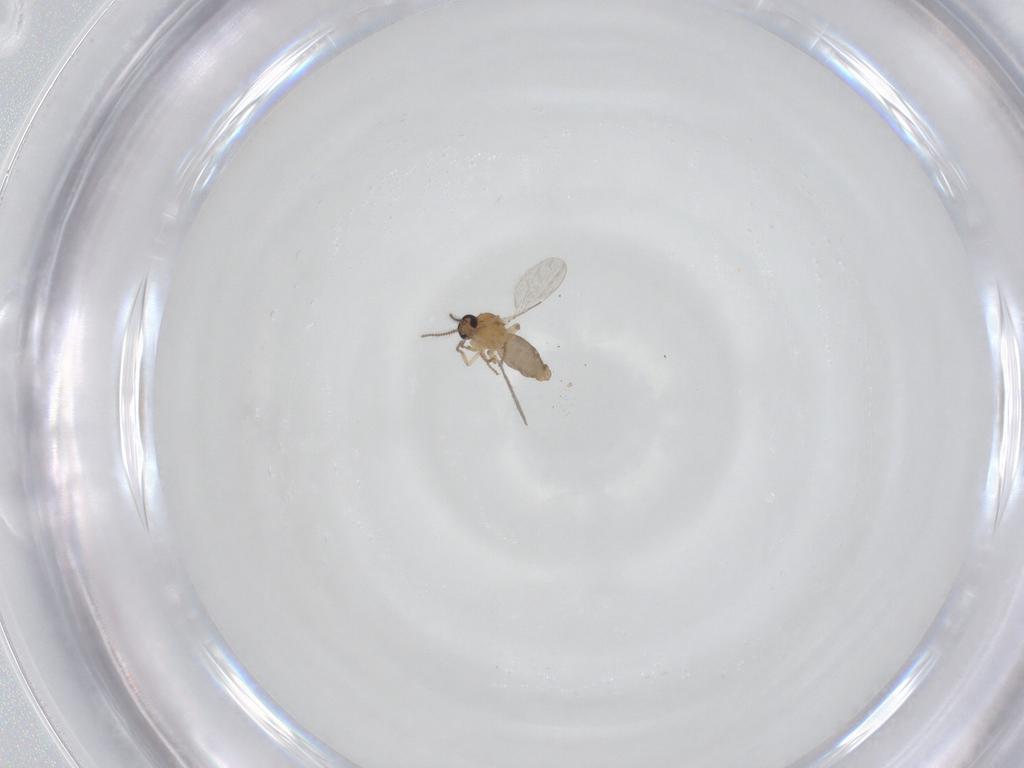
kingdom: Animalia
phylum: Arthropoda
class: Insecta
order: Diptera
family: Ceratopogonidae
